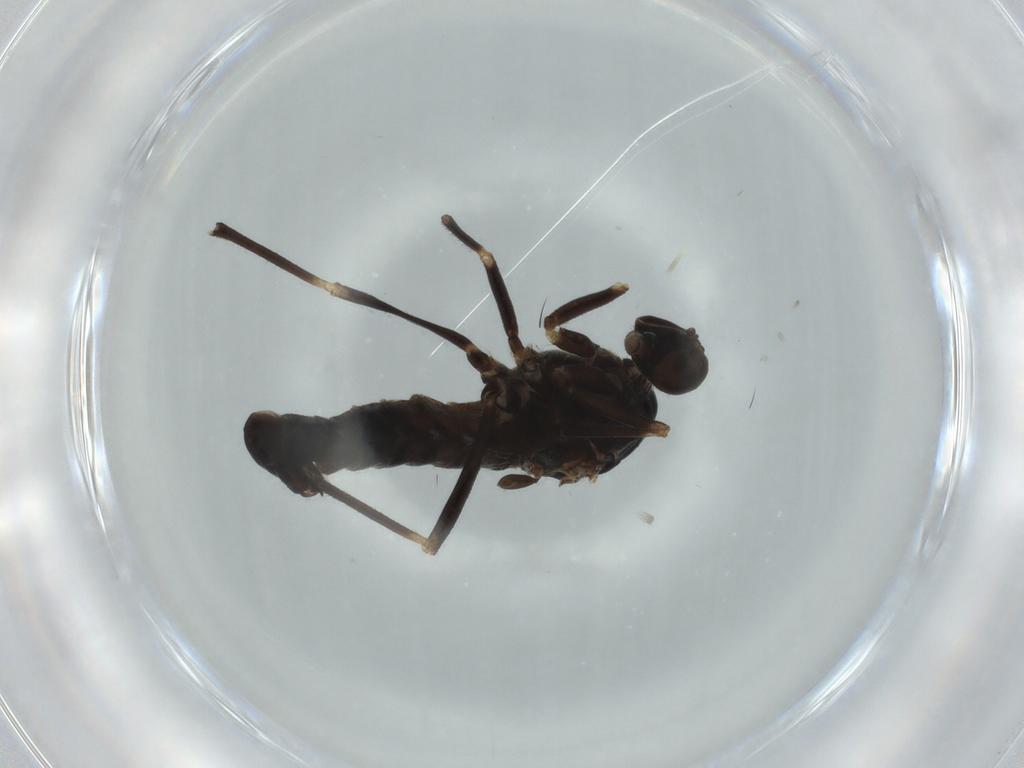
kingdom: Animalia
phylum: Arthropoda
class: Insecta
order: Diptera
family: Empididae
